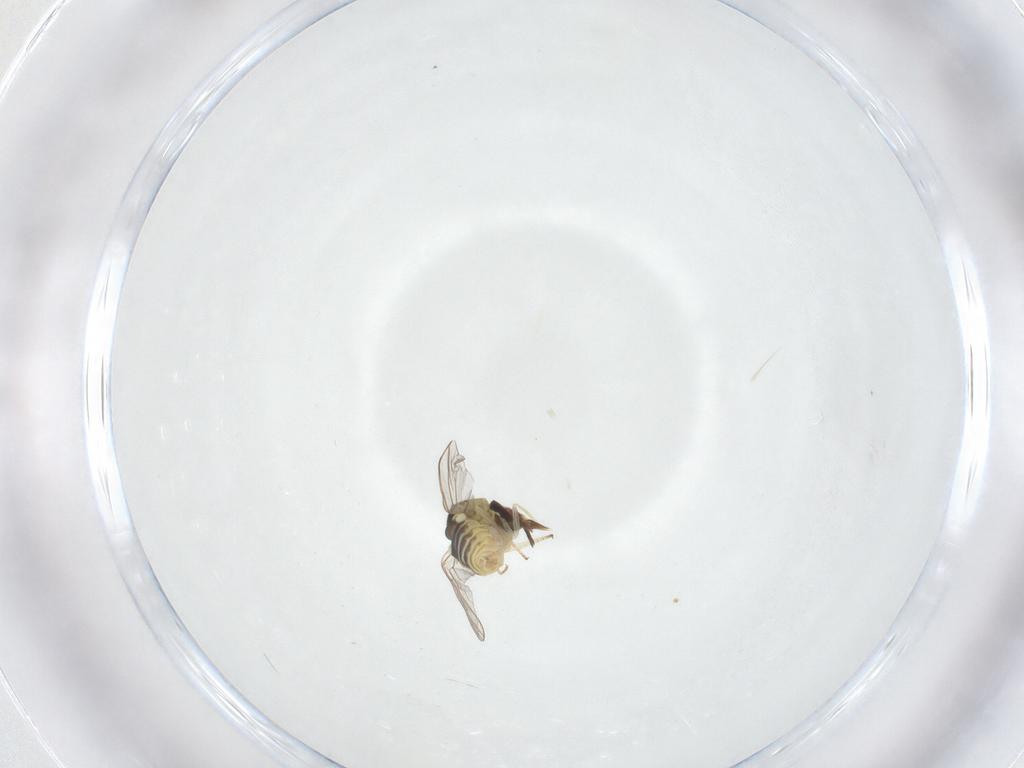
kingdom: Animalia
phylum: Arthropoda
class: Insecta
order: Diptera
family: Mythicomyiidae
